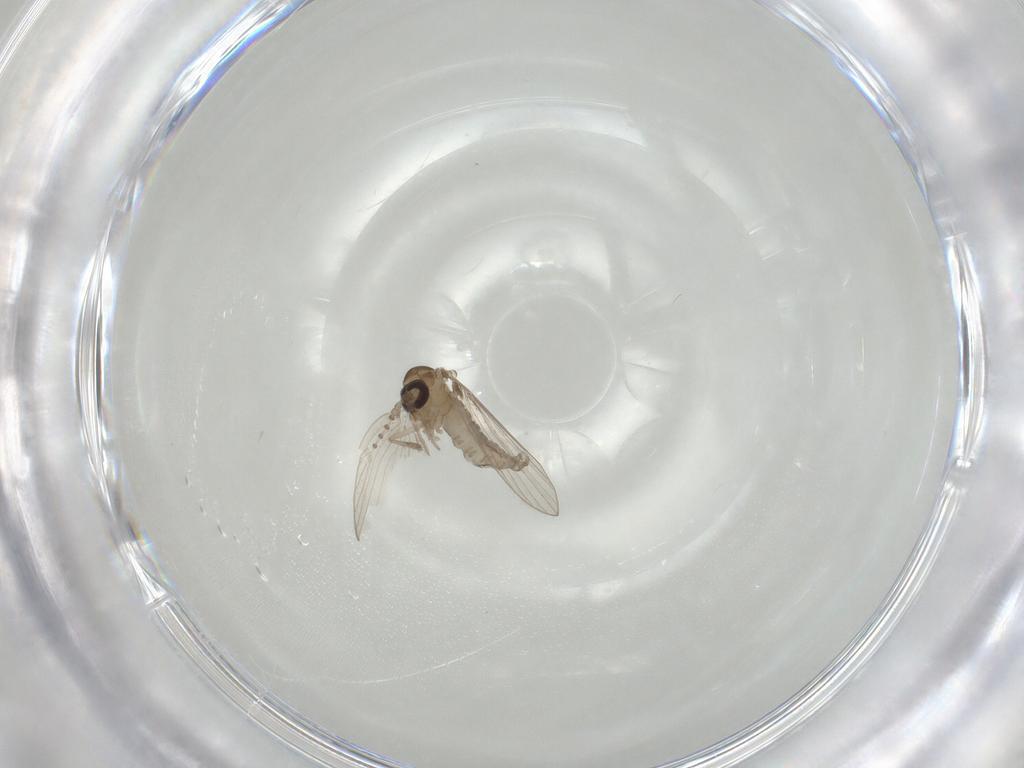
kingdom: Animalia
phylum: Arthropoda
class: Insecta
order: Diptera
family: Psychodidae
